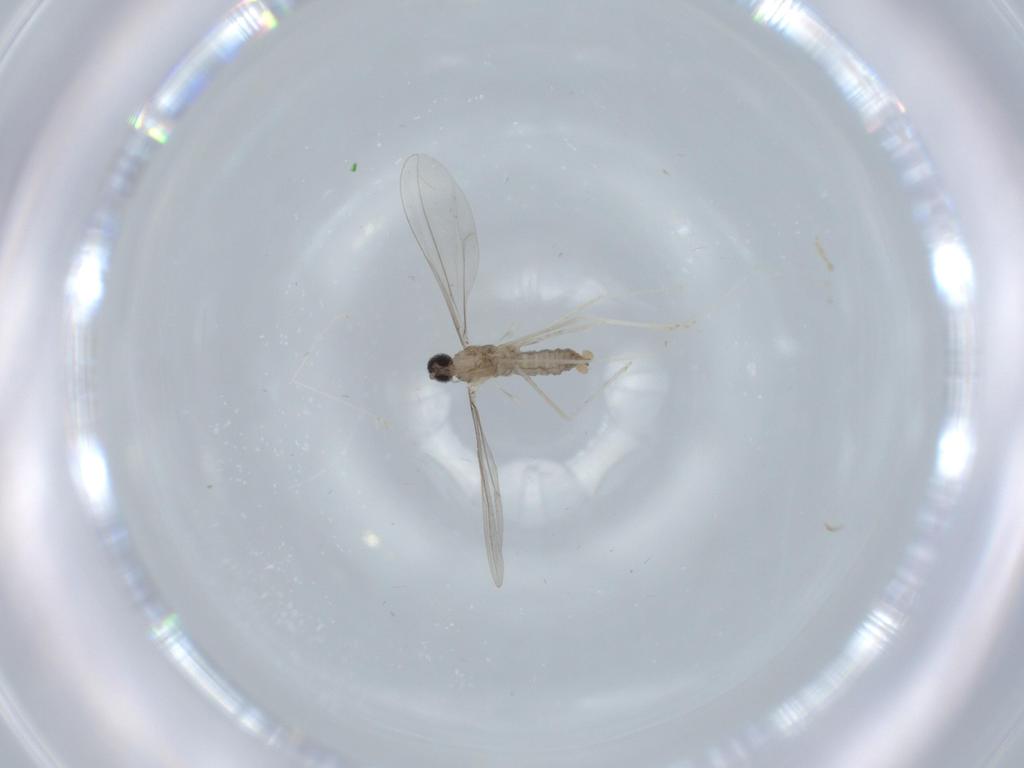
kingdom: Animalia
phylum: Arthropoda
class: Insecta
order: Diptera
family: Cecidomyiidae
